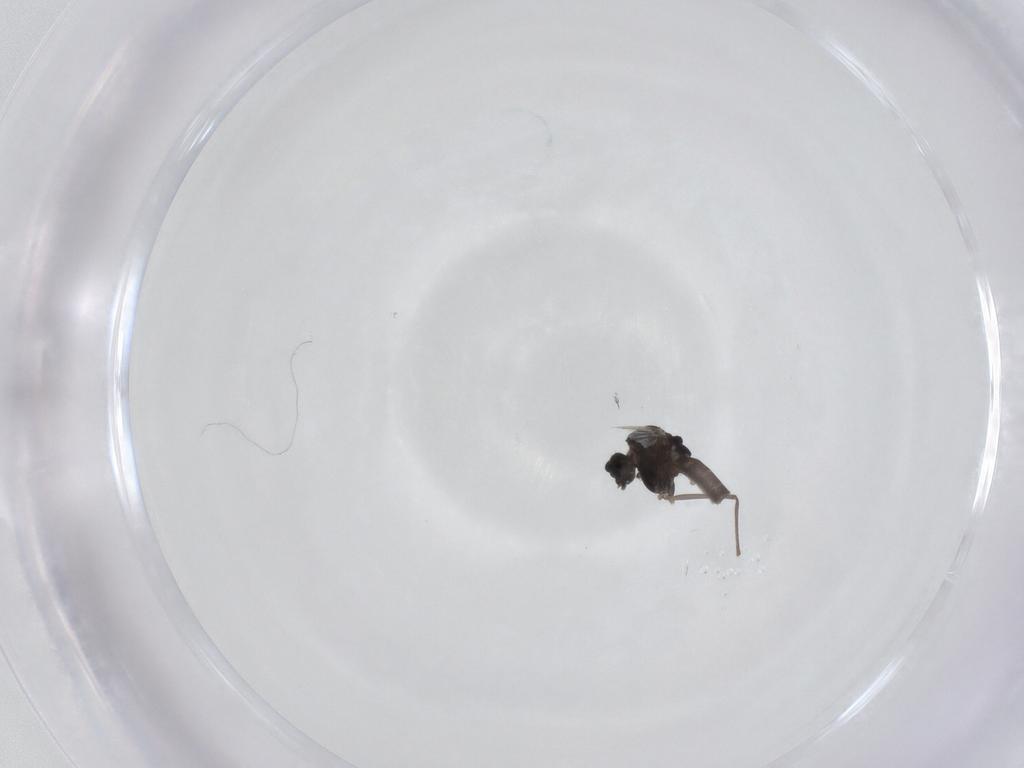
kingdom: Animalia
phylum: Arthropoda
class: Insecta
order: Diptera
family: Chironomidae
